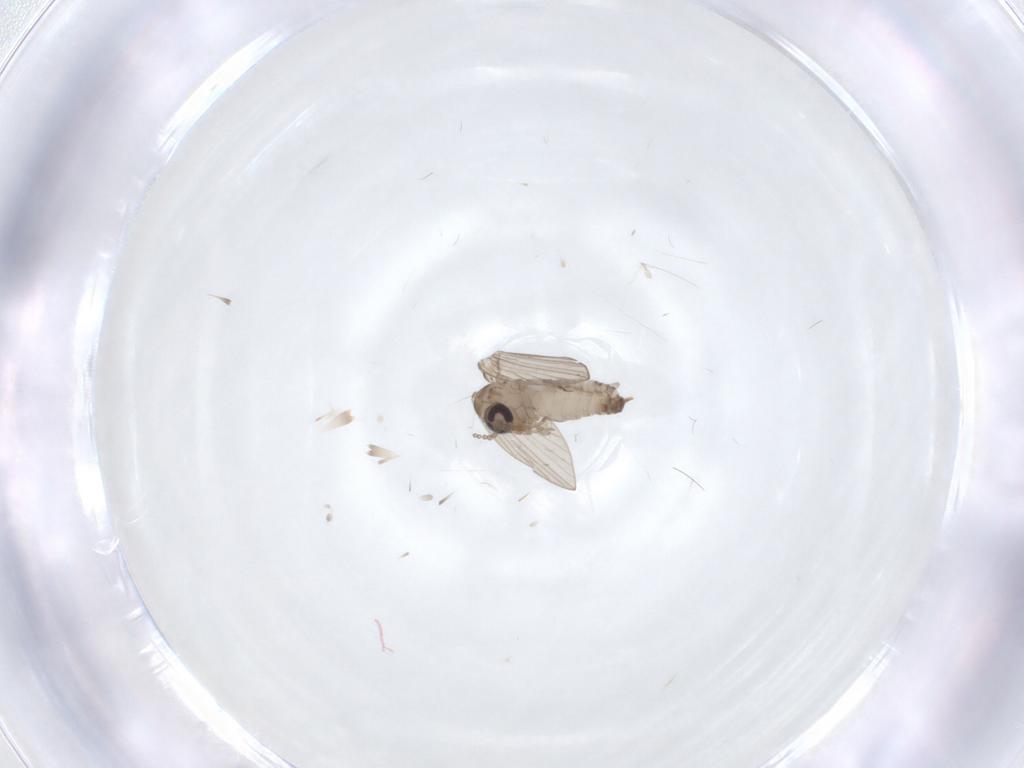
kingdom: Animalia
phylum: Arthropoda
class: Insecta
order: Diptera
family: Psychodidae
